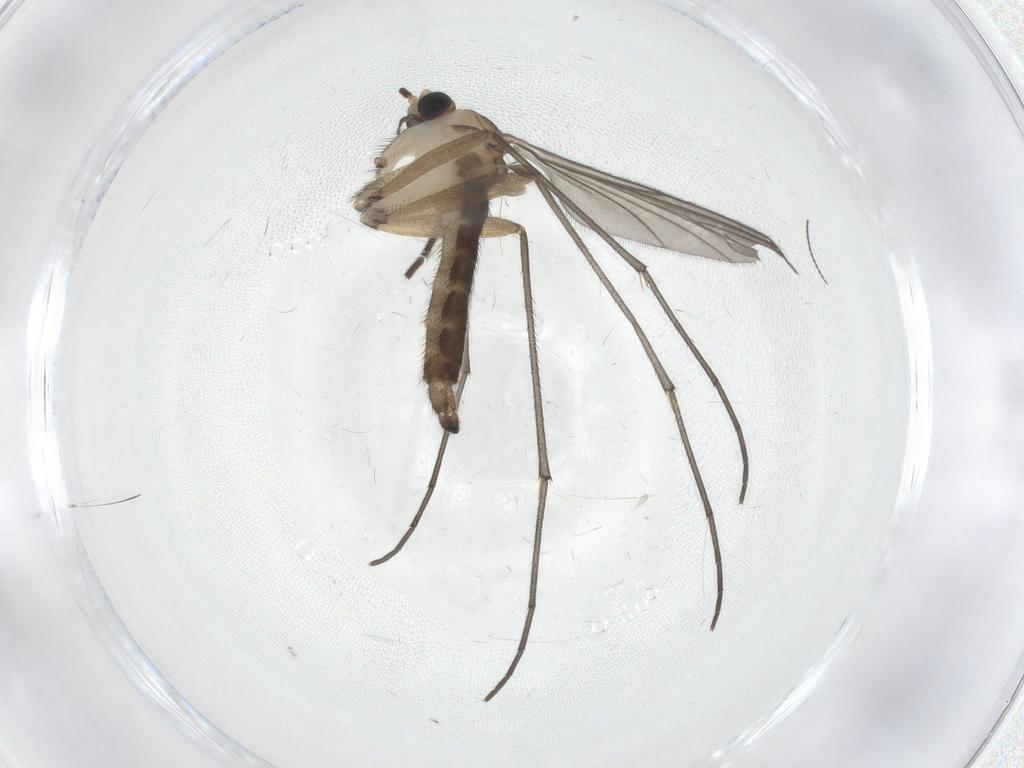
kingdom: Animalia
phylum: Arthropoda
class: Insecta
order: Diptera
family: Sciaridae
